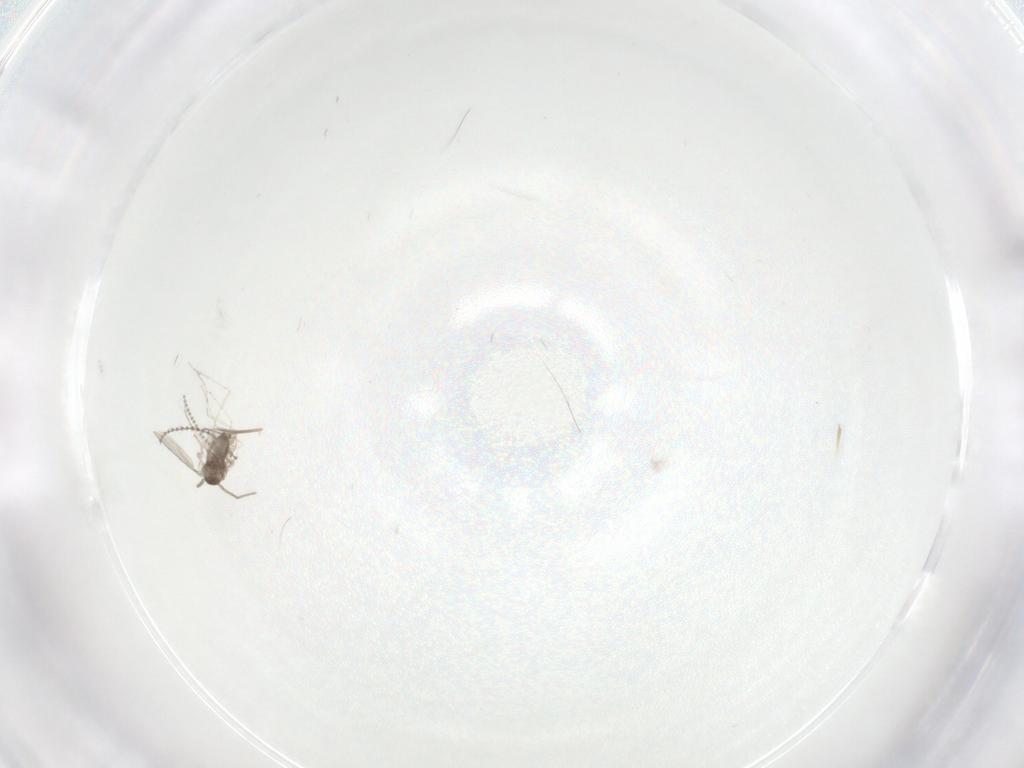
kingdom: Animalia
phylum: Arthropoda
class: Insecta
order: Diptera
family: Cecidomyiidae
